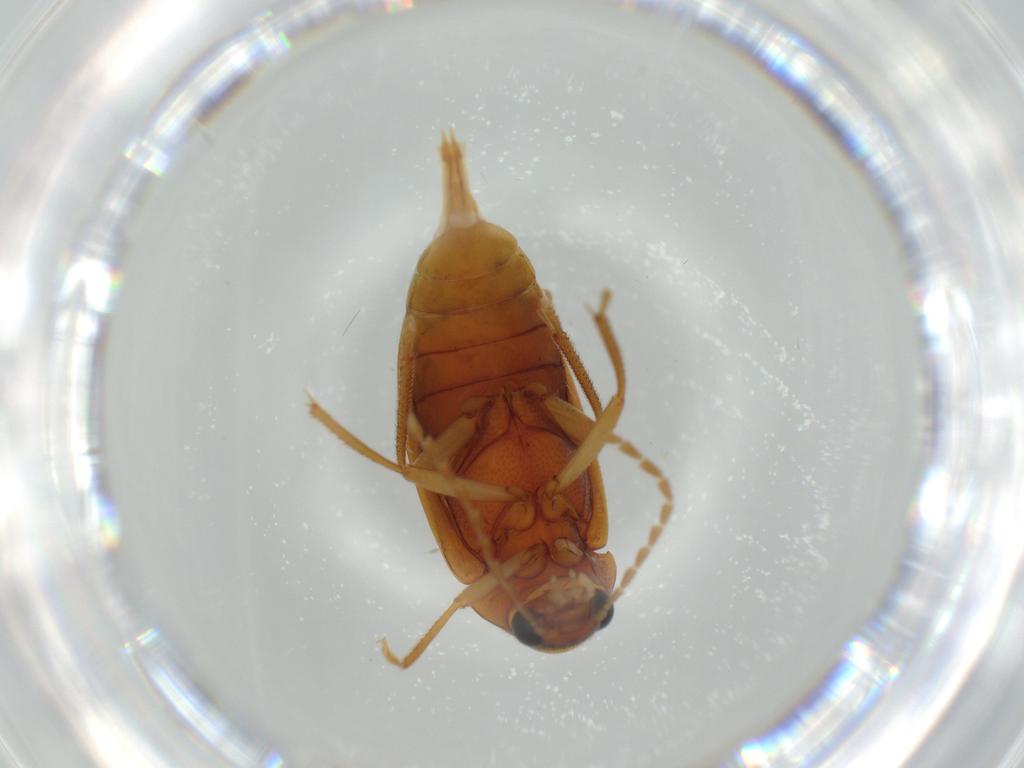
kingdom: Animalia
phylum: Arthropoda
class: Insecta
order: Coleoptera
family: Ptilodactylidae
